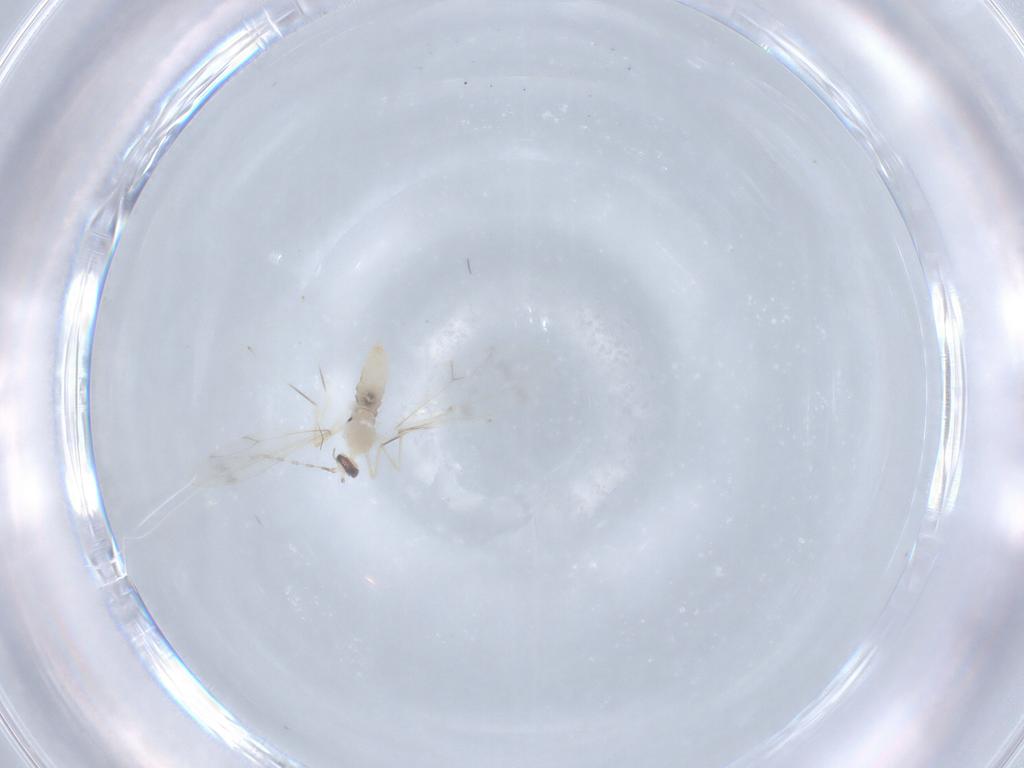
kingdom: Animalia
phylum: Arthropoda
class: Insecta
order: Diptera
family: Cecidomyiidae
